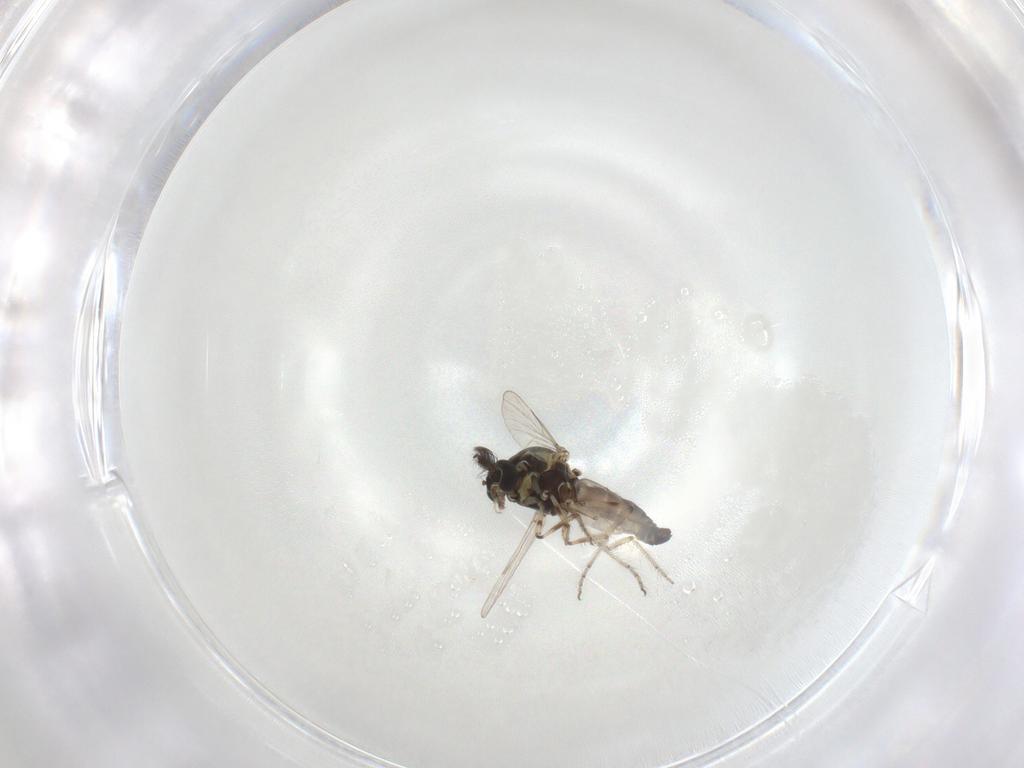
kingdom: Animalia
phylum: Arthropoda
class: Insecta
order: Diptera
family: Ceratopogonidae
